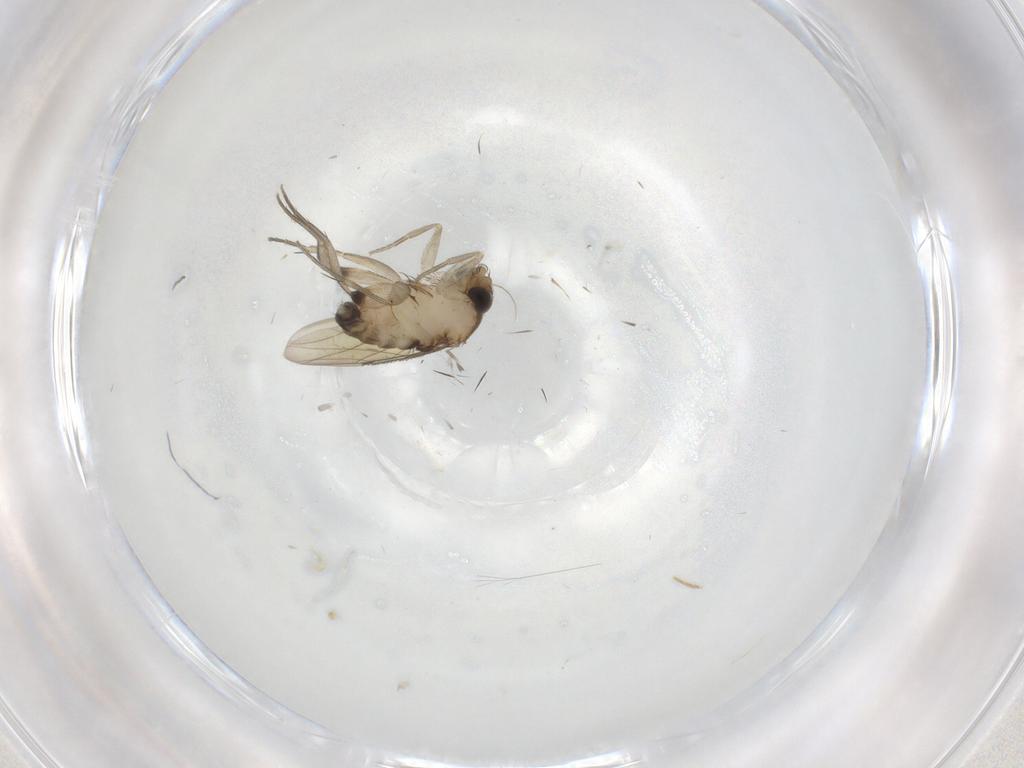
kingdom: Animalia
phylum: Arthropoda
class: Insecta
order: Diptera
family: Phoridae
